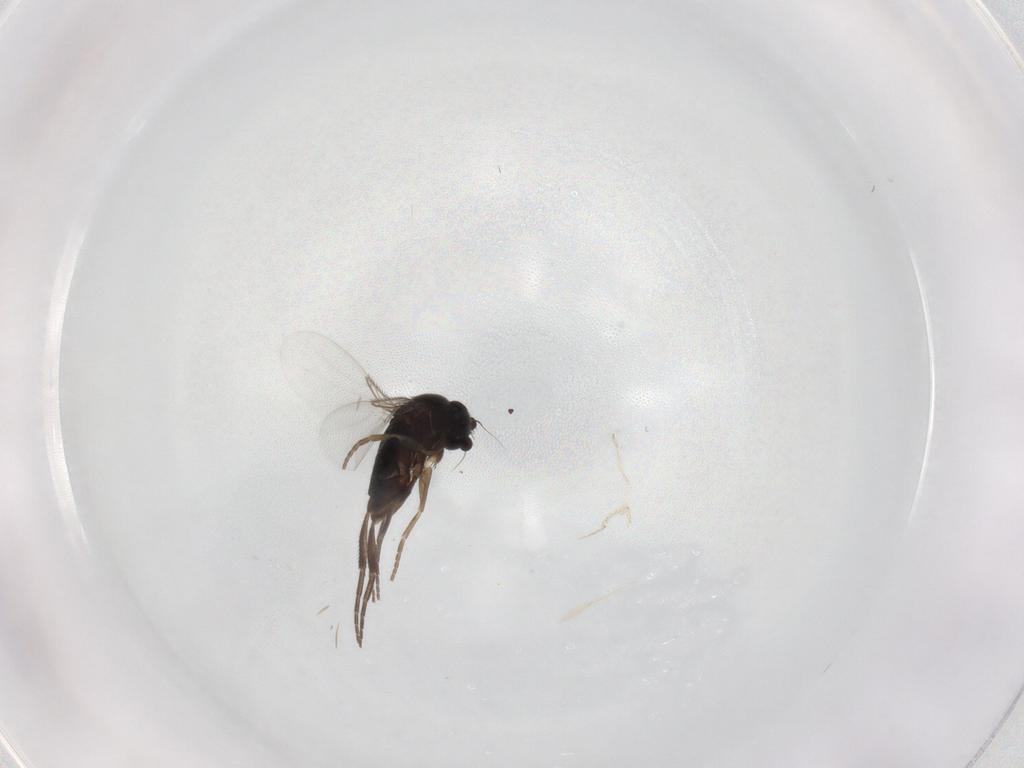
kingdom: Animalia
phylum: Arthropoda
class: Insecta
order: Diptera
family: Phoridae
